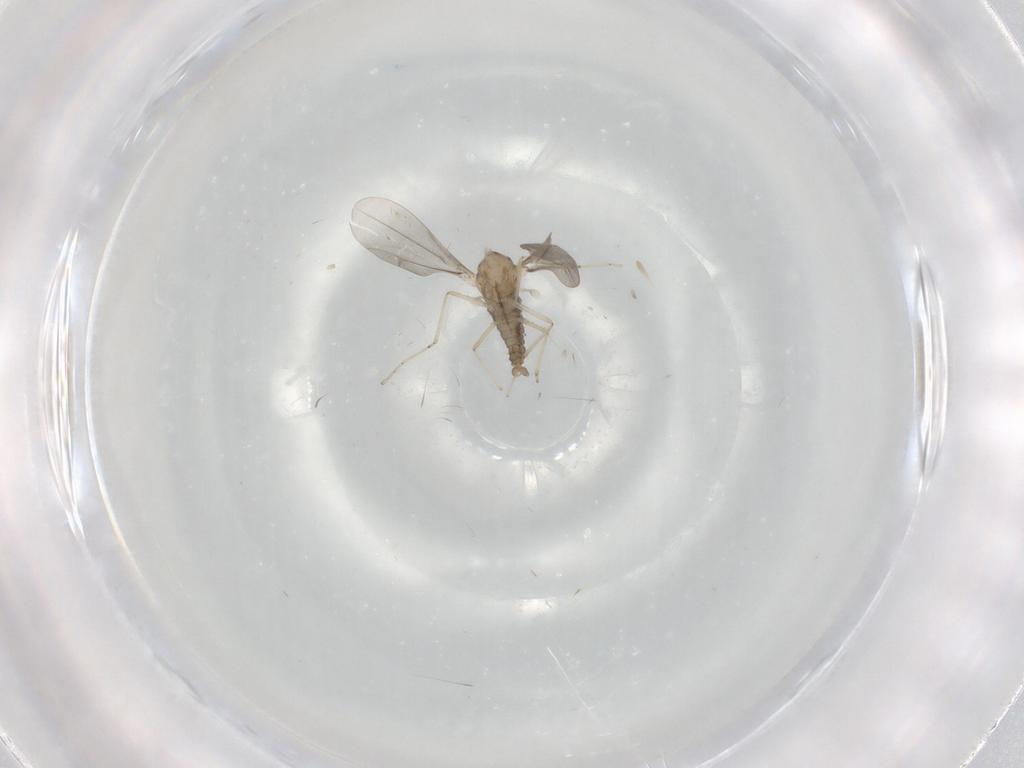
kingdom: Animalia
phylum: Arthropoda
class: Insecta
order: Diptera
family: Cecidomyiidae
